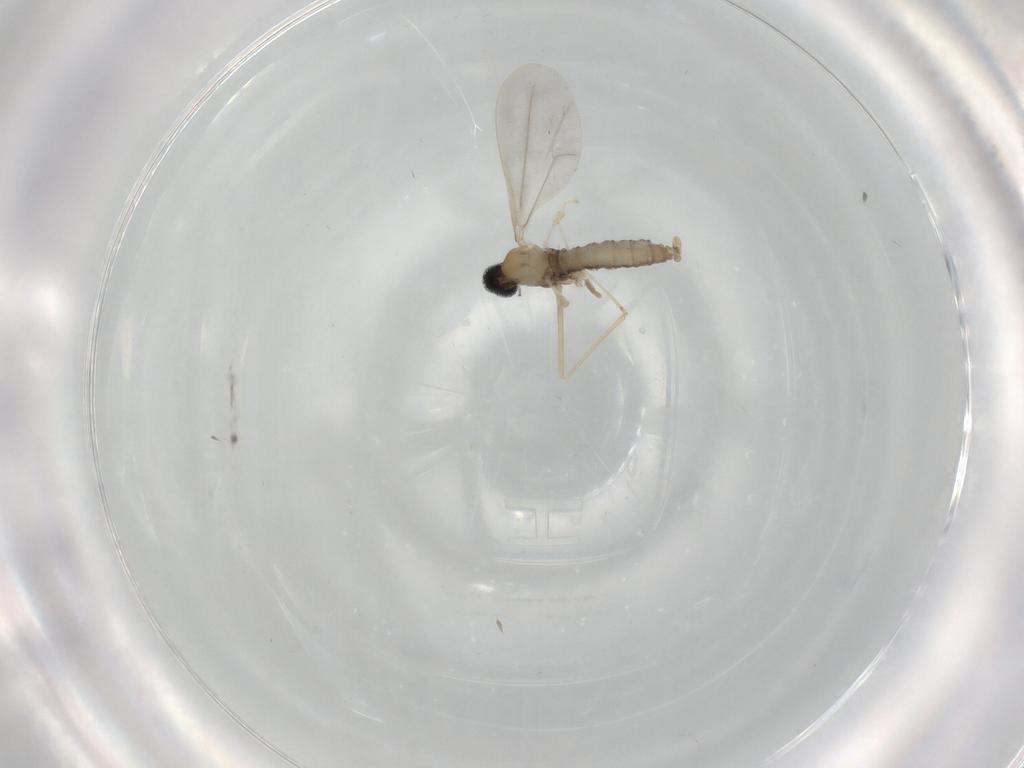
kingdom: Animalia
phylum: Arthropoda
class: Insecta
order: Diptera
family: Cecidomyiidae
